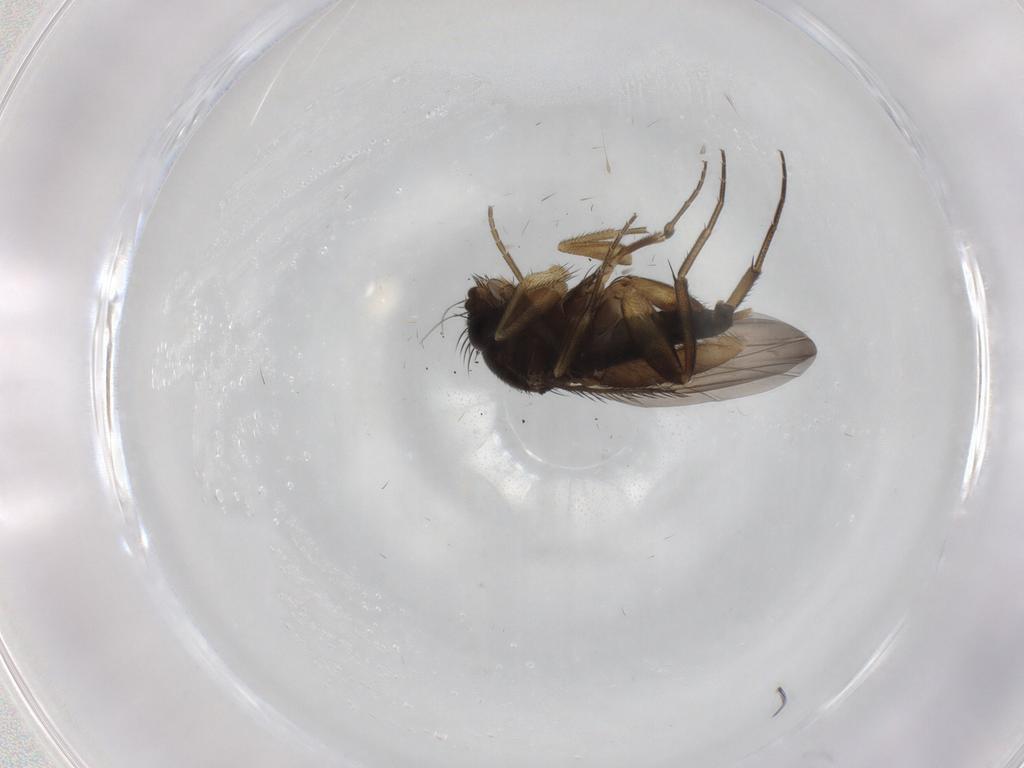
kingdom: Animalia
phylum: Arthropoda
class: Insecta
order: Diptera
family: Phoridae
